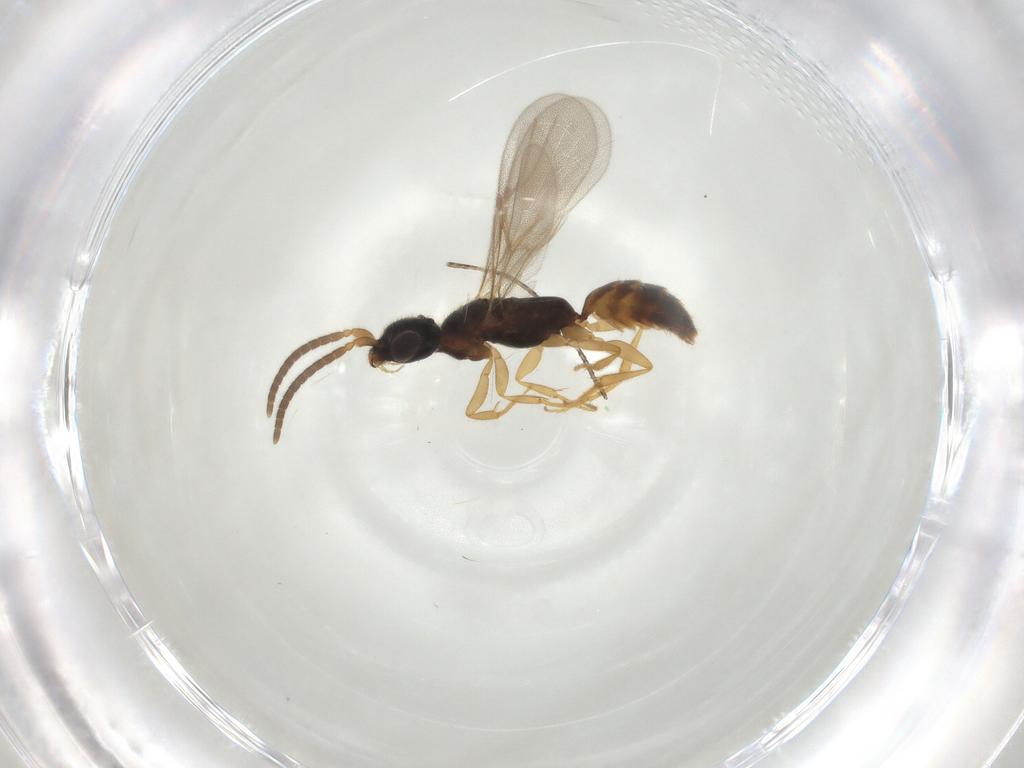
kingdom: Animalia
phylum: Arthropoda
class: Insecta
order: Hymenoptera
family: Bethylidae
